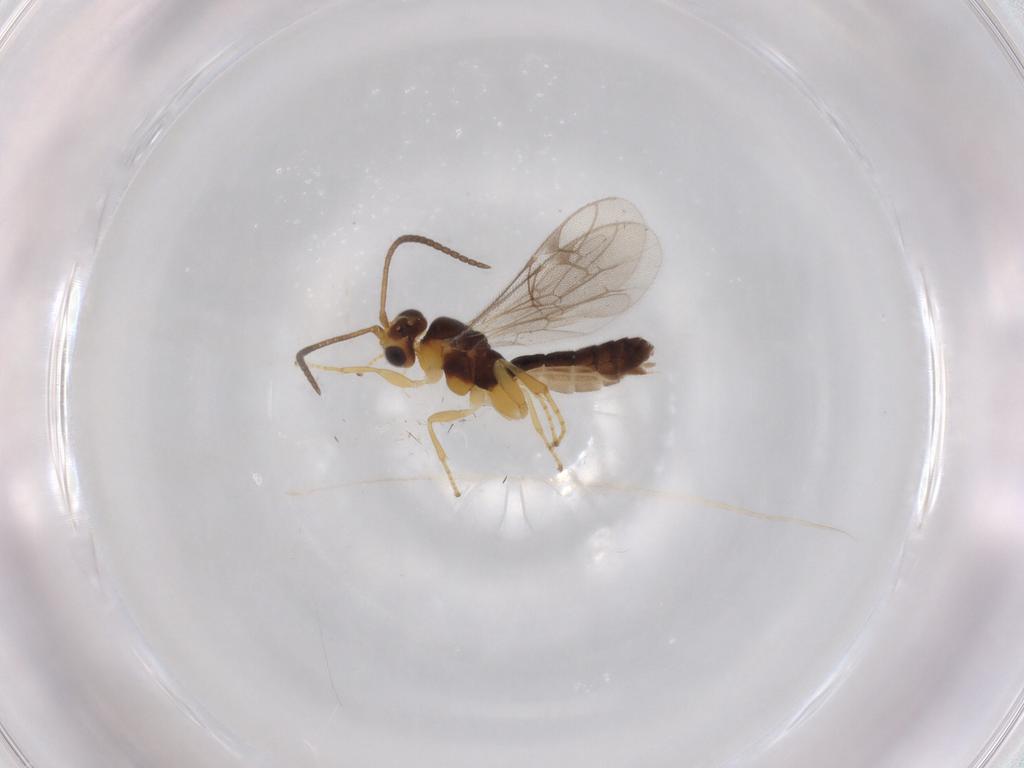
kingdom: Animalia
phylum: Arthropoda
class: Insecta
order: Hymenoptera
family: Ichneumonidae
